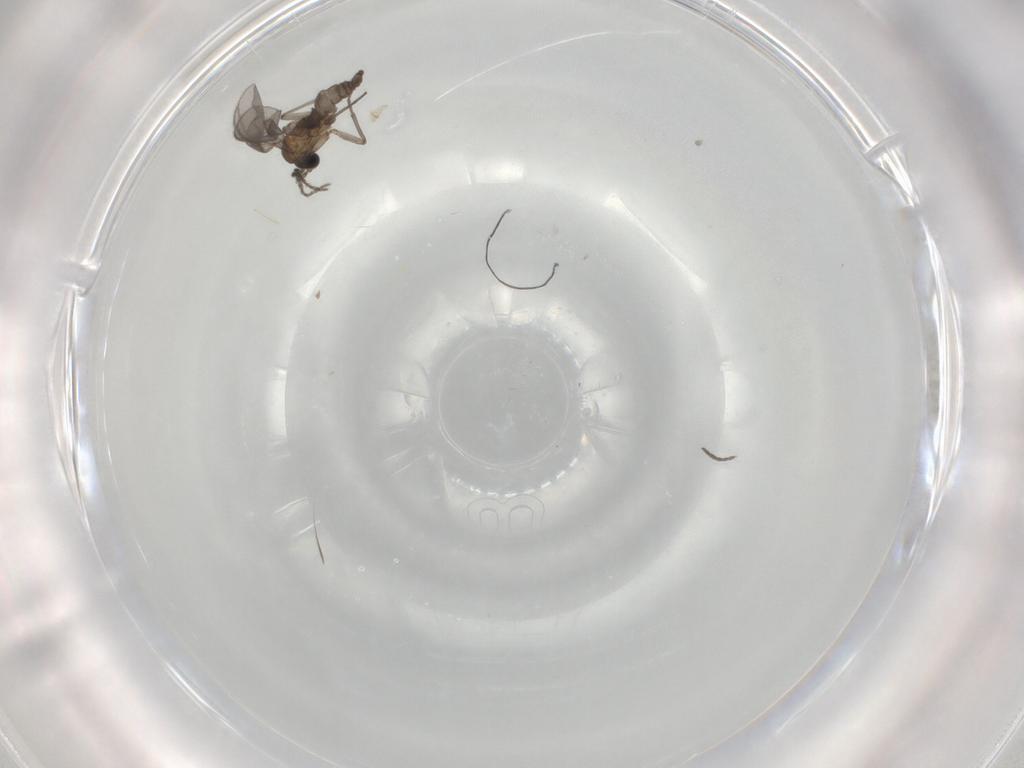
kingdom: Animalia
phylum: Arthropoda
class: Insecta
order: Diptera
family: Sciaridae
